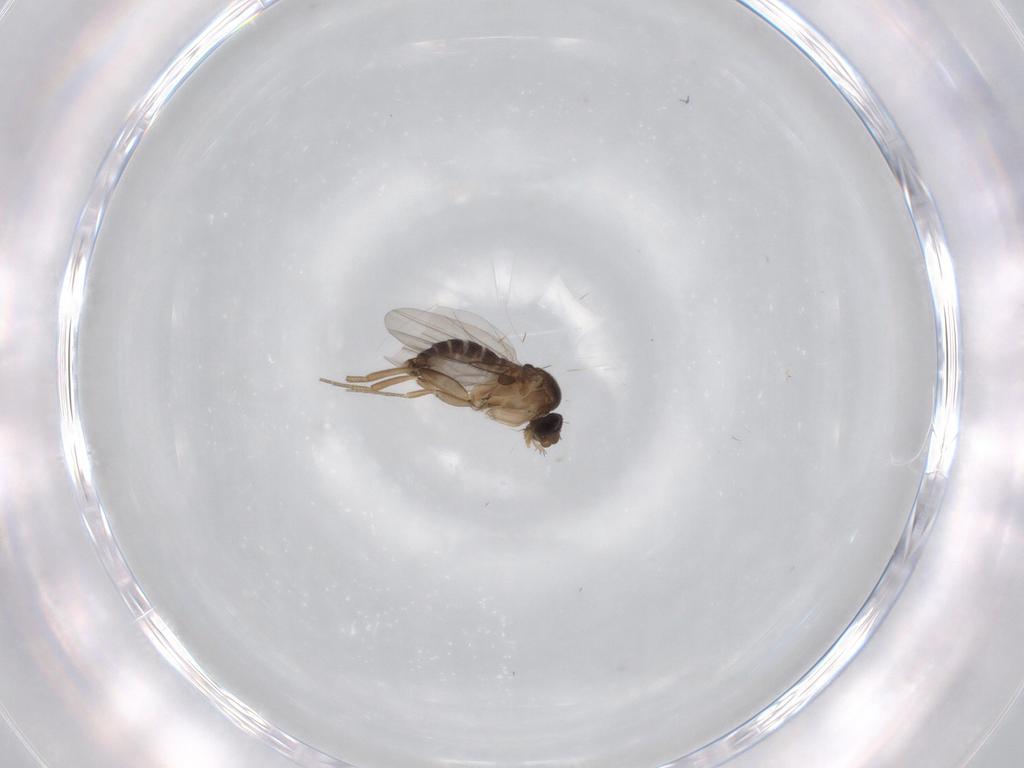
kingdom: Animalia
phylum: Arthropoda
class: Insecta
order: Diptera
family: Phoridae
